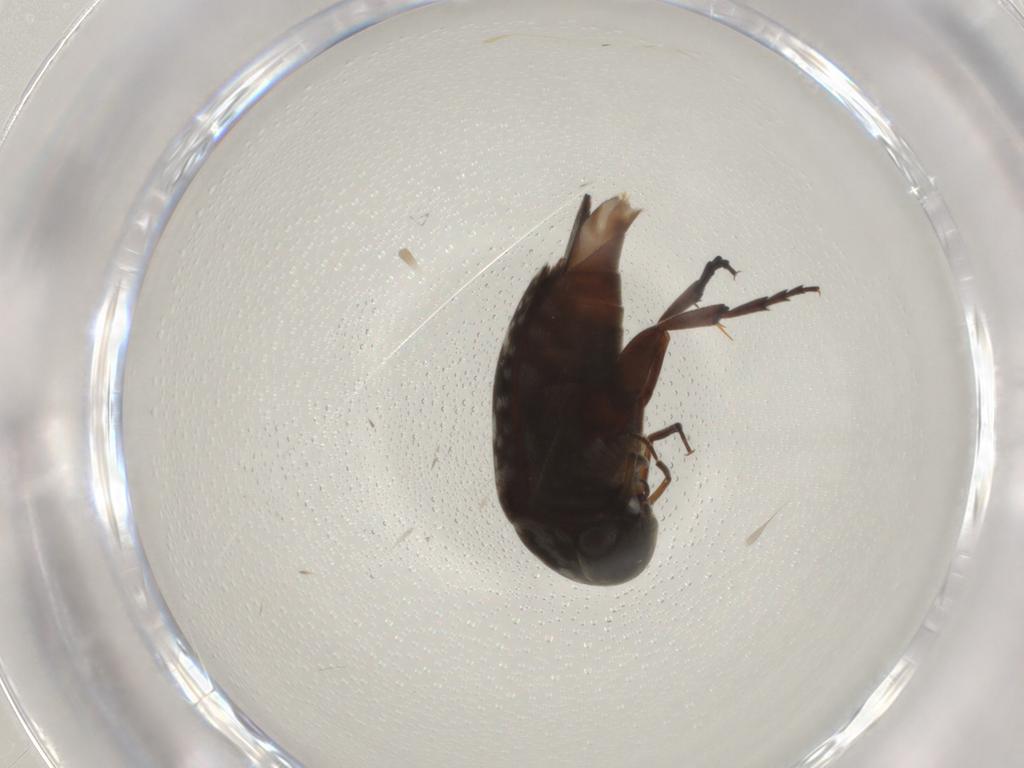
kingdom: Animalia
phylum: Arthropoda
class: Insecta
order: Coleoptera
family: Mordellidae
